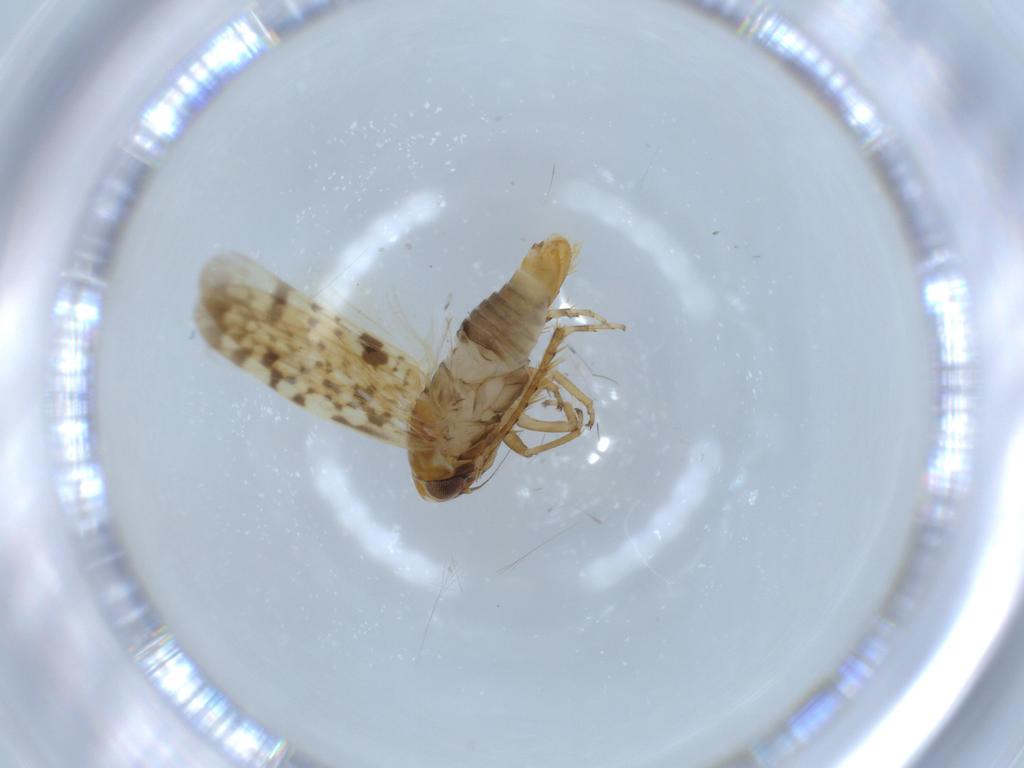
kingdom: Animalia
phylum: Arthropoda
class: Insecta
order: Hemiptera
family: Cicadellidae
